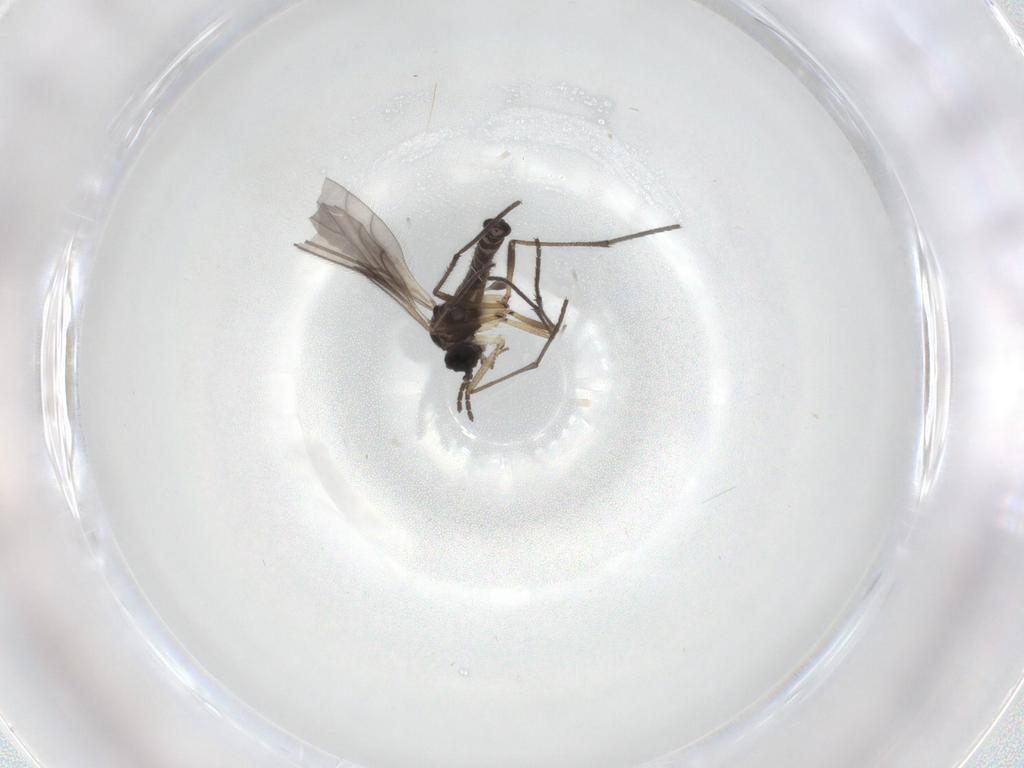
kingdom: Animalia
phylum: Arthropoda
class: Insecta
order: Diptera
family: Sciaridae
